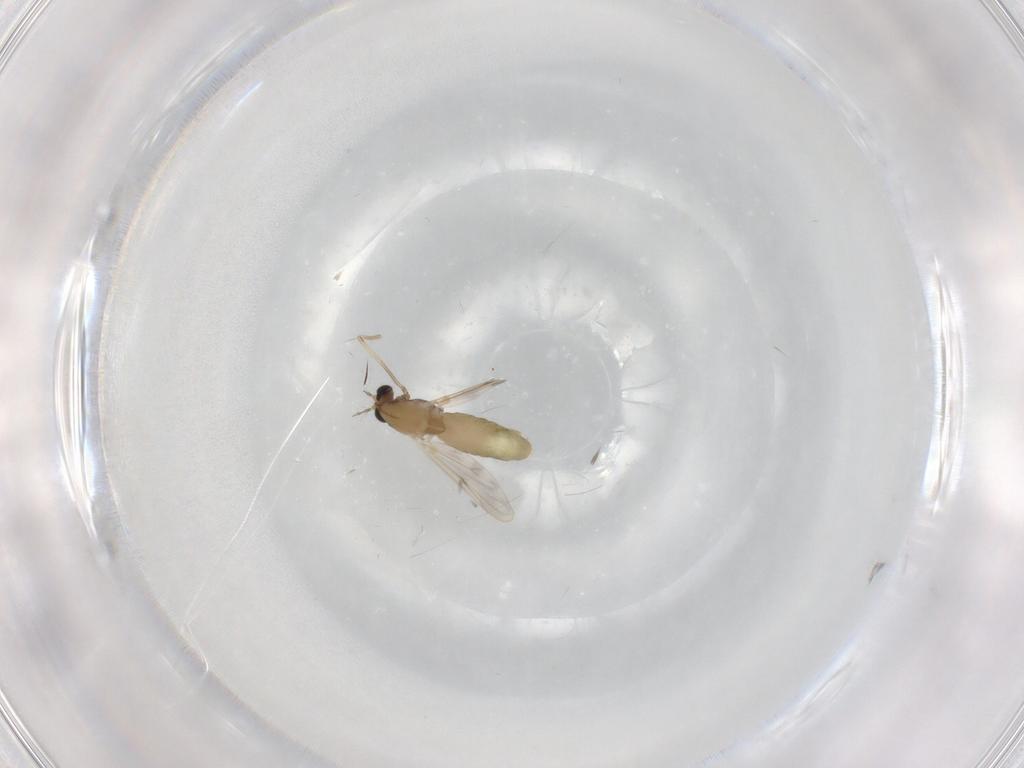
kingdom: Animalia
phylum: Arthropoda
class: Insecta
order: Diptera
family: Chironomidae
